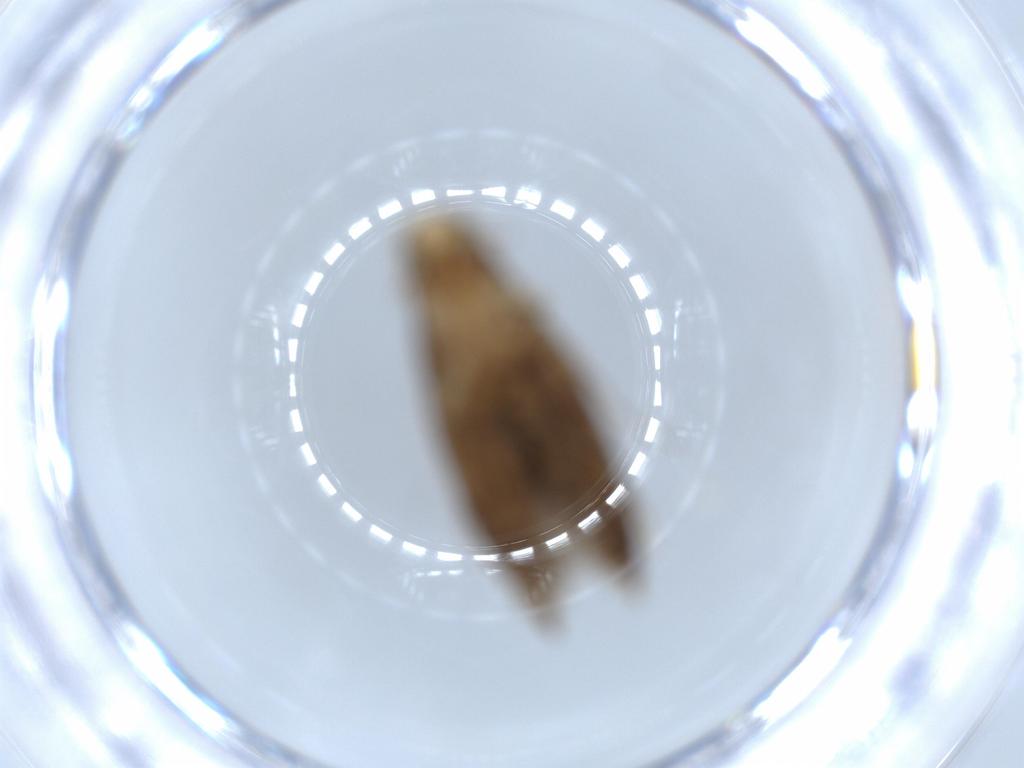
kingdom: Animalia
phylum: Arthropoda
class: Insecta
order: Lepidoptera
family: Tineidae
